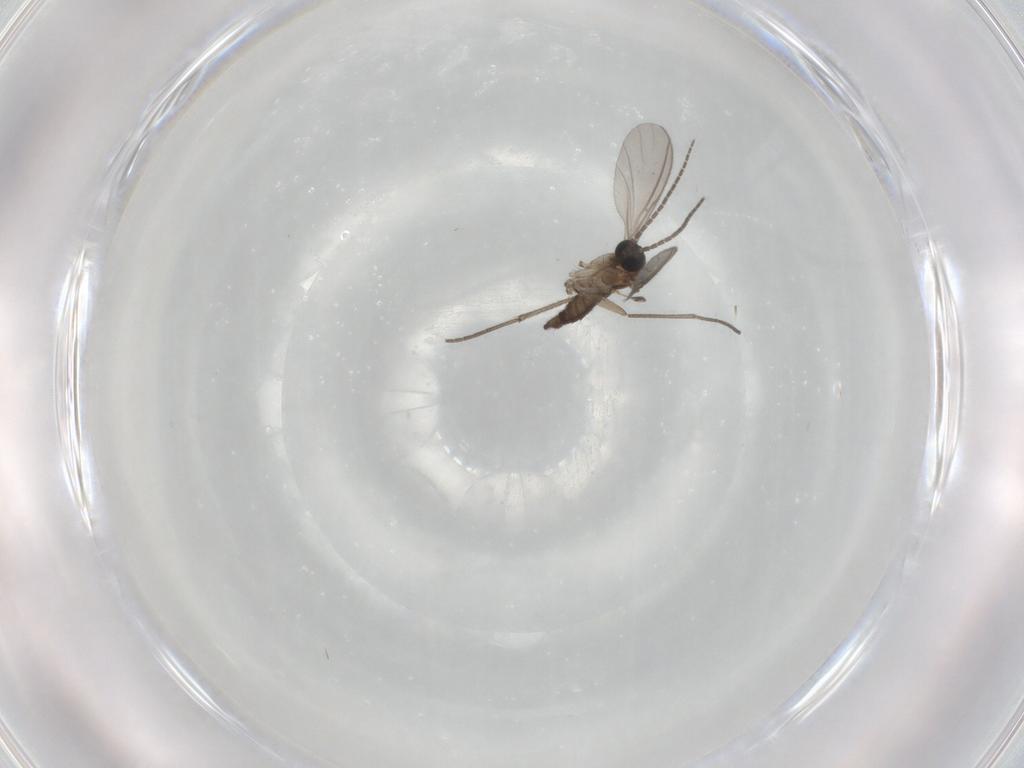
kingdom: Animalia
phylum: Arthropoda
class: Insecta
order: Diptera
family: Sciaridae
